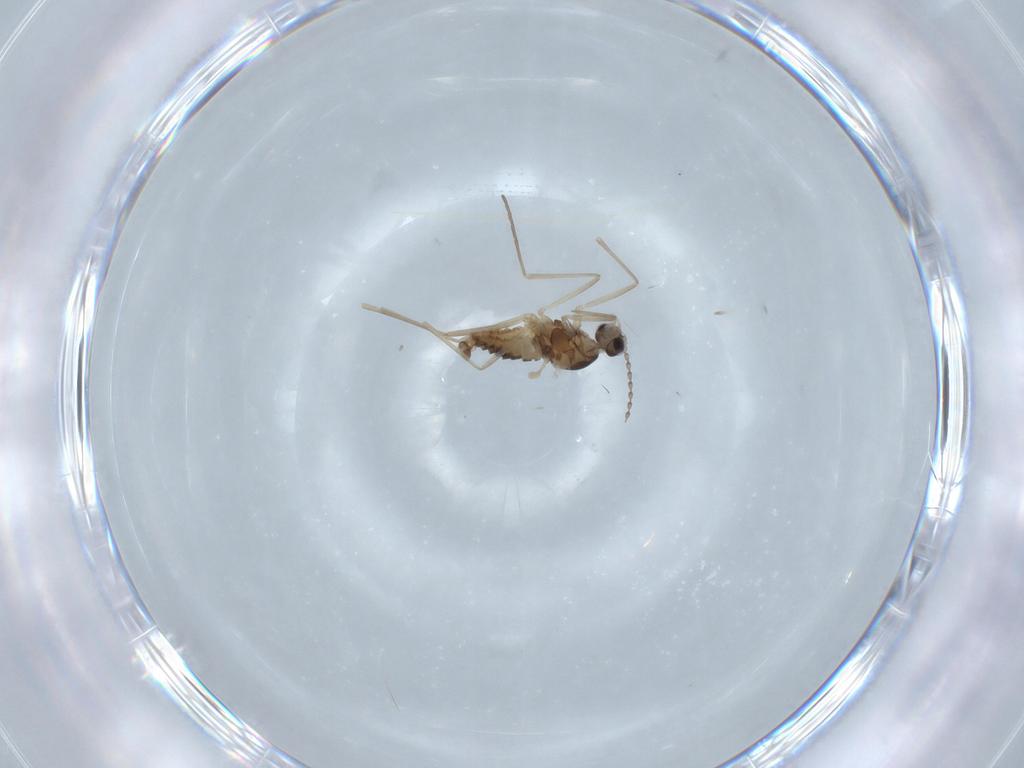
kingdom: Animalia
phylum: Arthropoda
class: Insecta
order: Diptera
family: Cecidomyiidae
